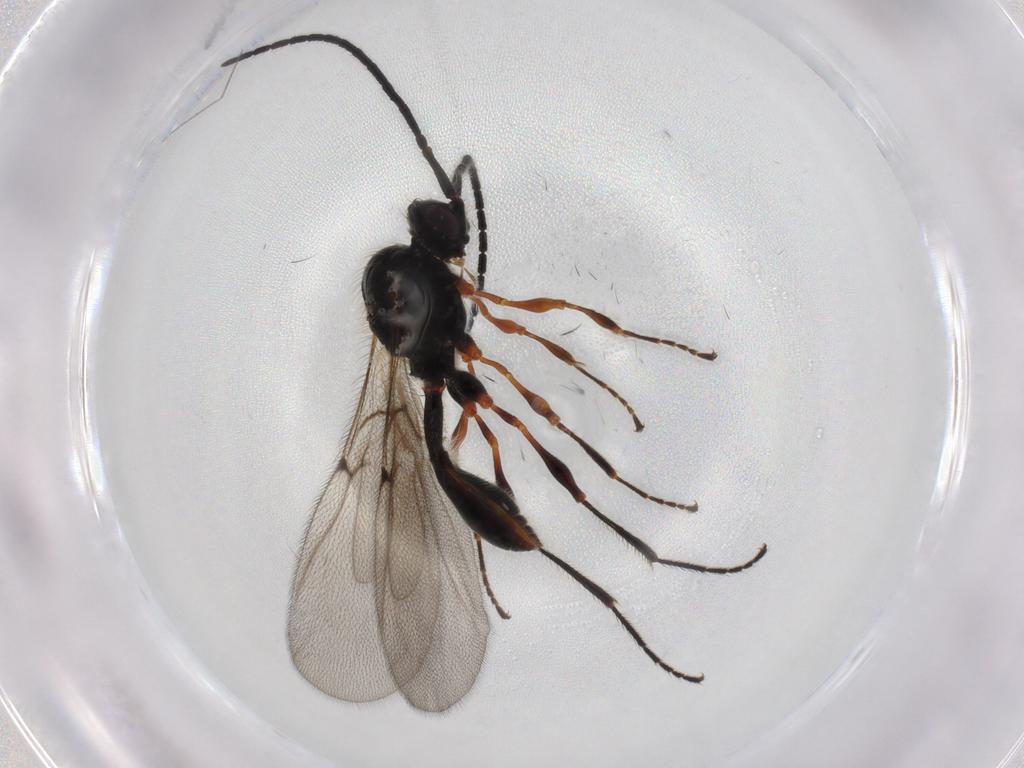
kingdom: Animalia
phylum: Arthropoda
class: Insecta
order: Hymenoptera
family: Diapriidae
